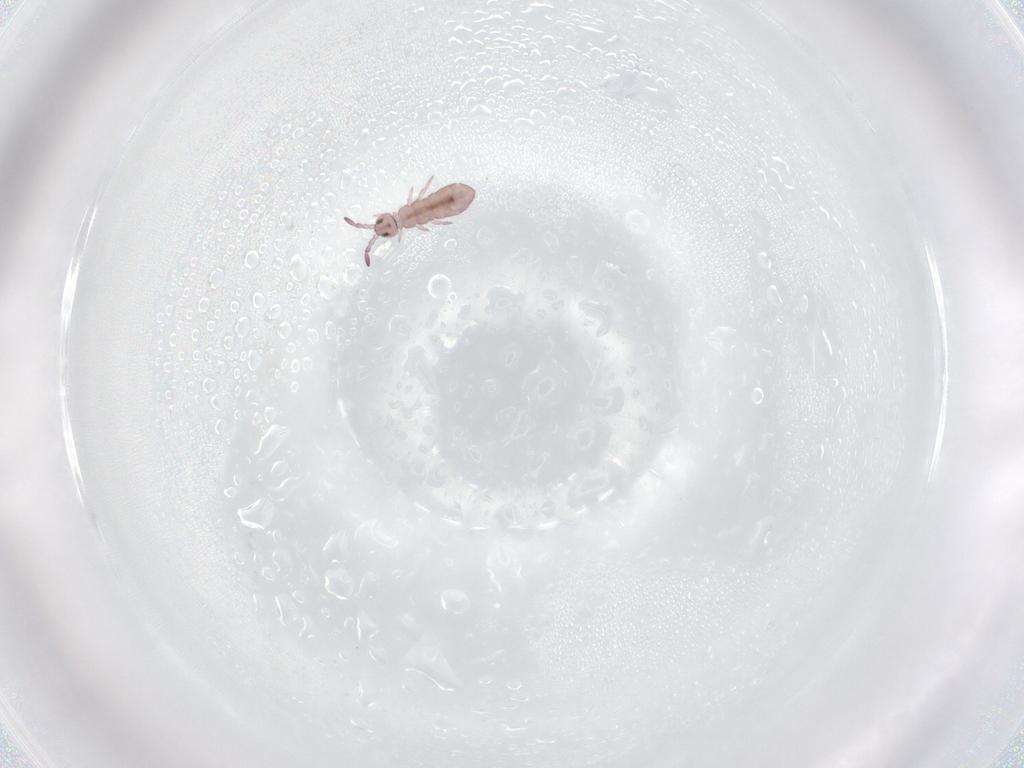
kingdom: Animalia
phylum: Arthropoda
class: Collembola
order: Entomobryomorpha
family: Isotomidae
